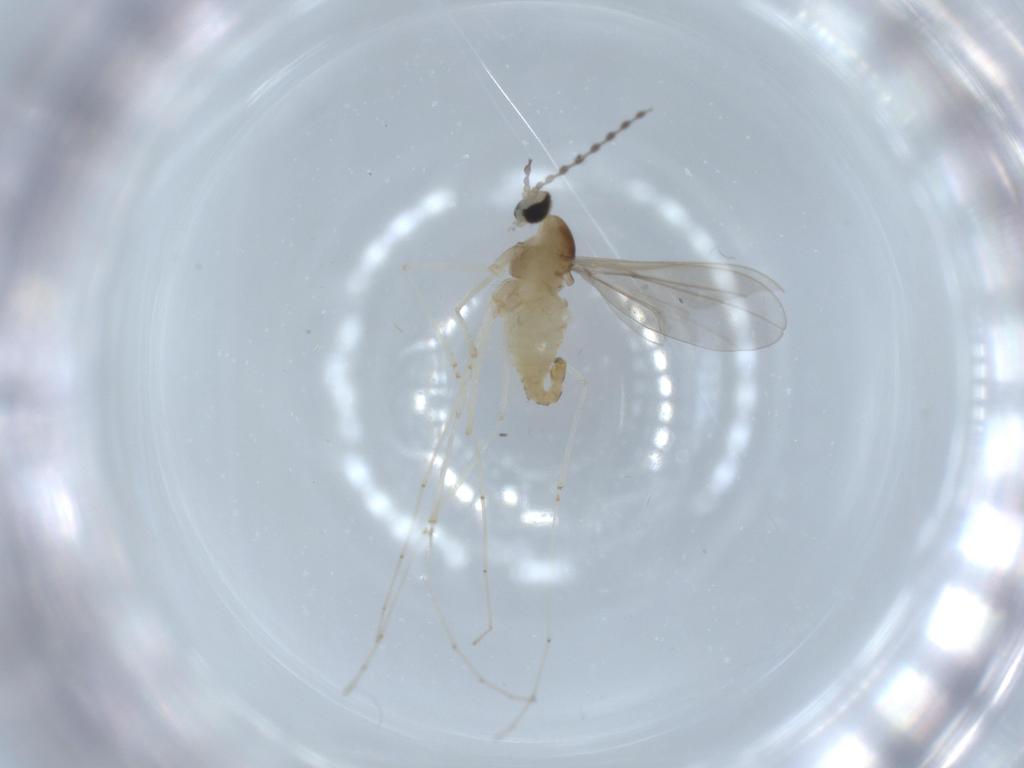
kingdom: Animalia
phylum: Arthropoda
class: Insecta
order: Diptera
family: Cecidomyiidae
